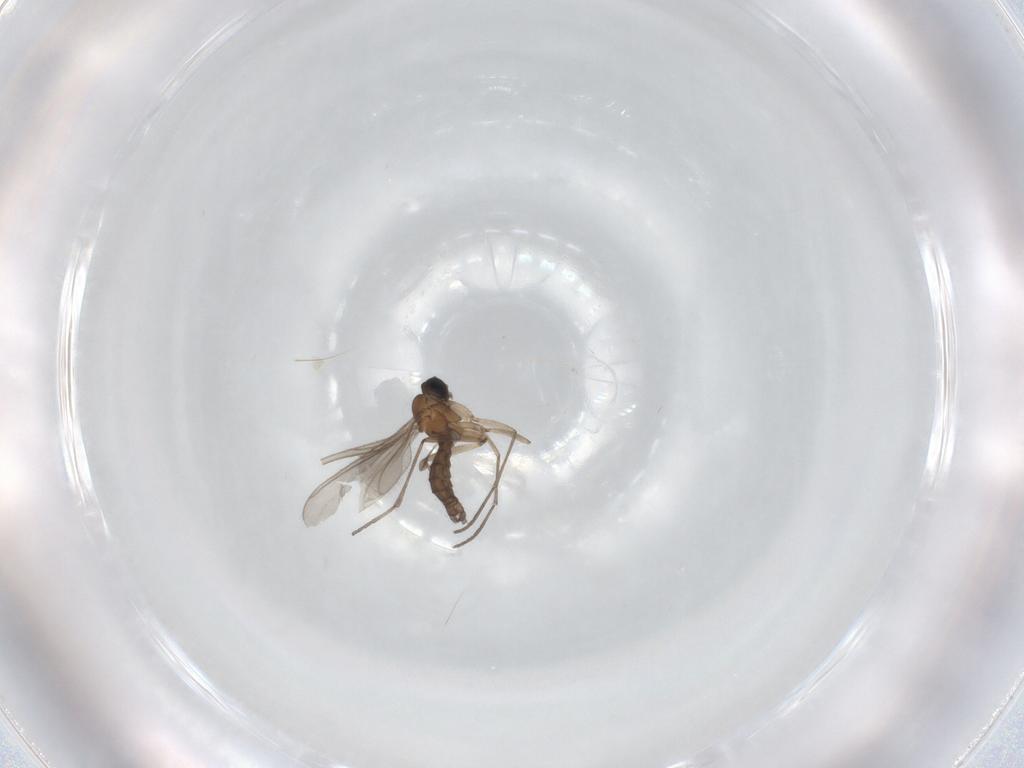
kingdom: Animalia
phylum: Arthropoda
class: Insecta
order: Diptera
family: Sciaridae
